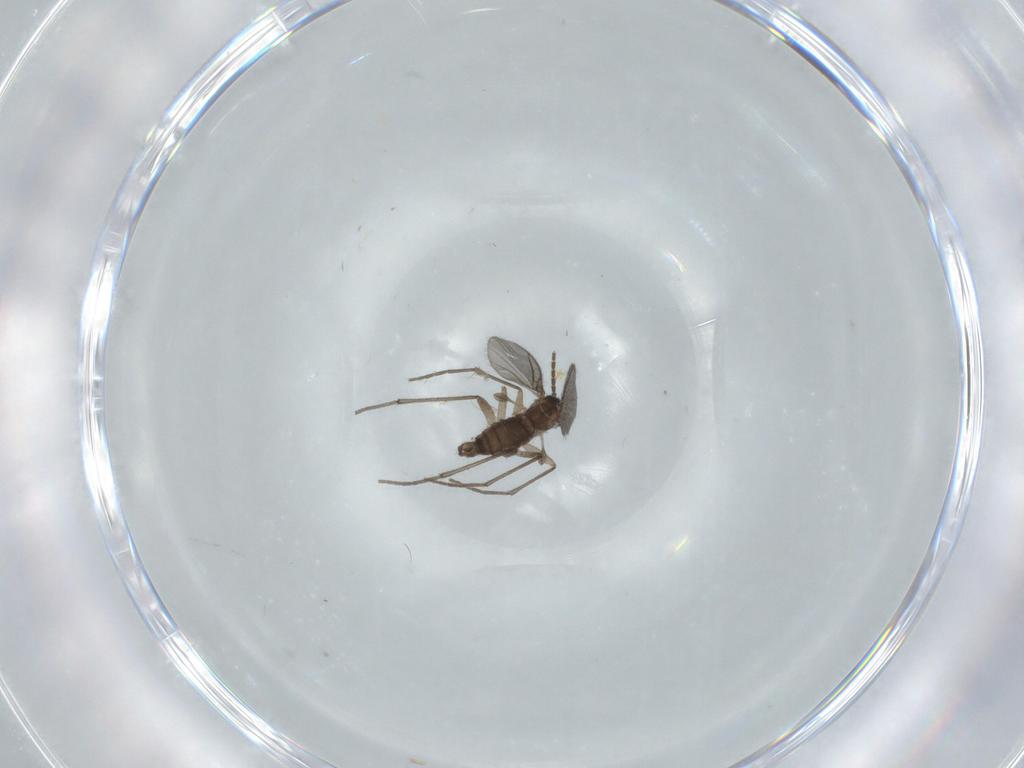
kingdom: Animalia
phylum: Arthropoda
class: Insecta
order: Diptera
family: Sciaridae
